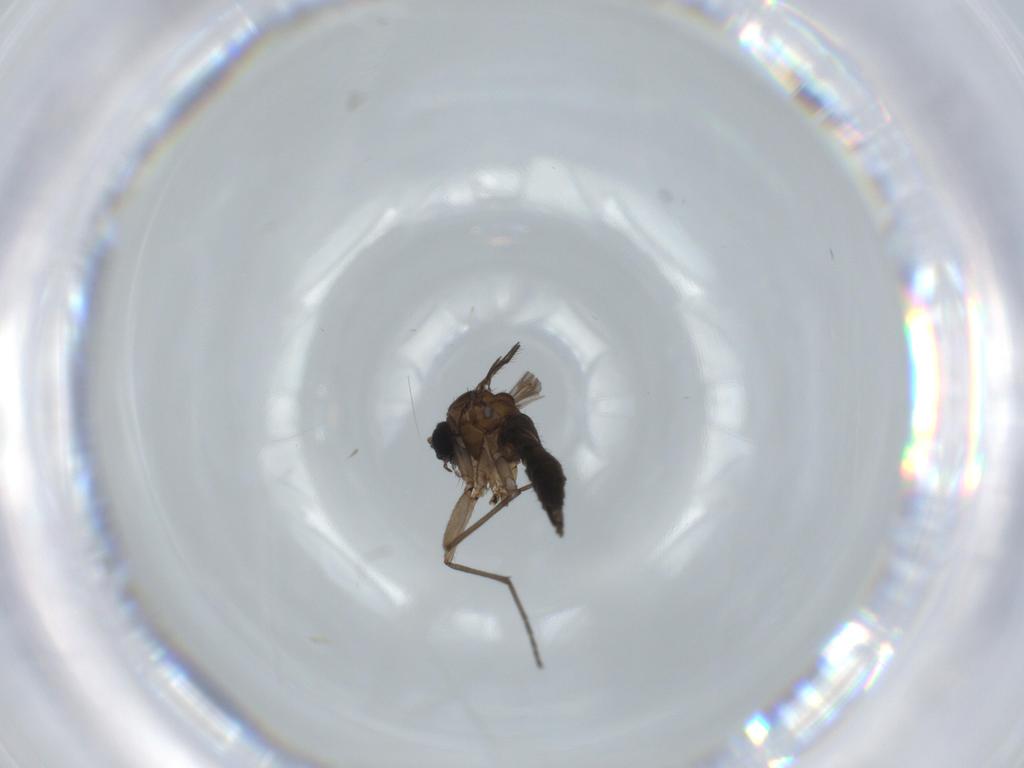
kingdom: Animalia
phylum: Arthropoda
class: Insecta
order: Diptera
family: Sciaridae
